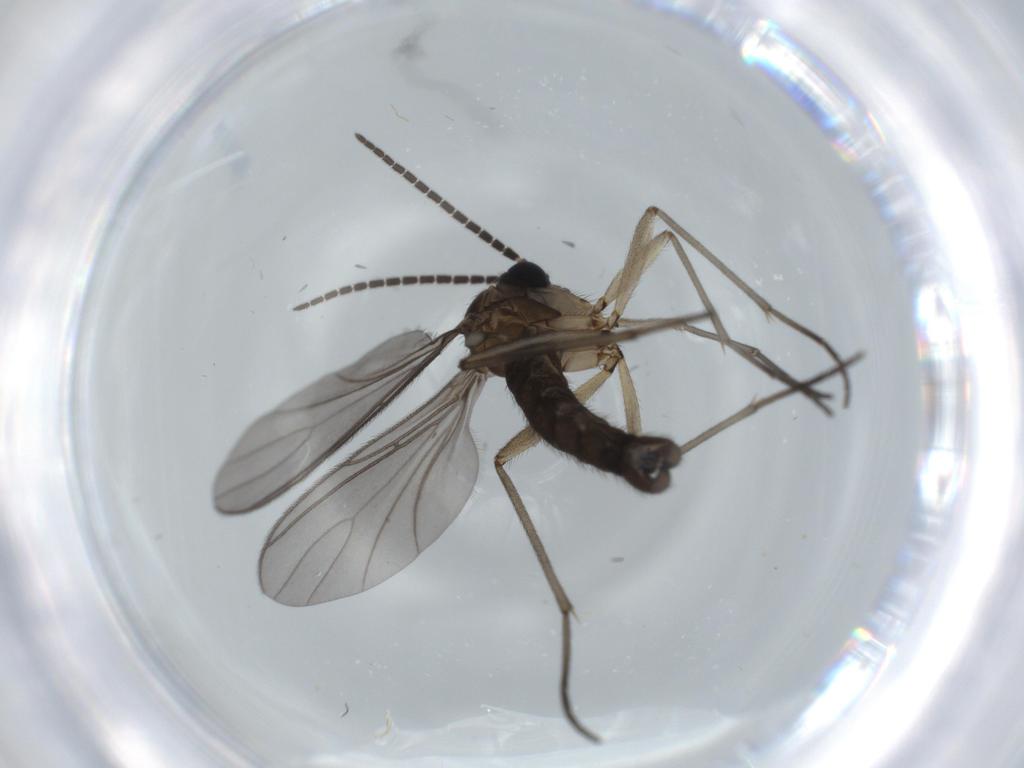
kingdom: Animalia
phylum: Arthropoda
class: Insecta
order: Diptera
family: Sciaridae
